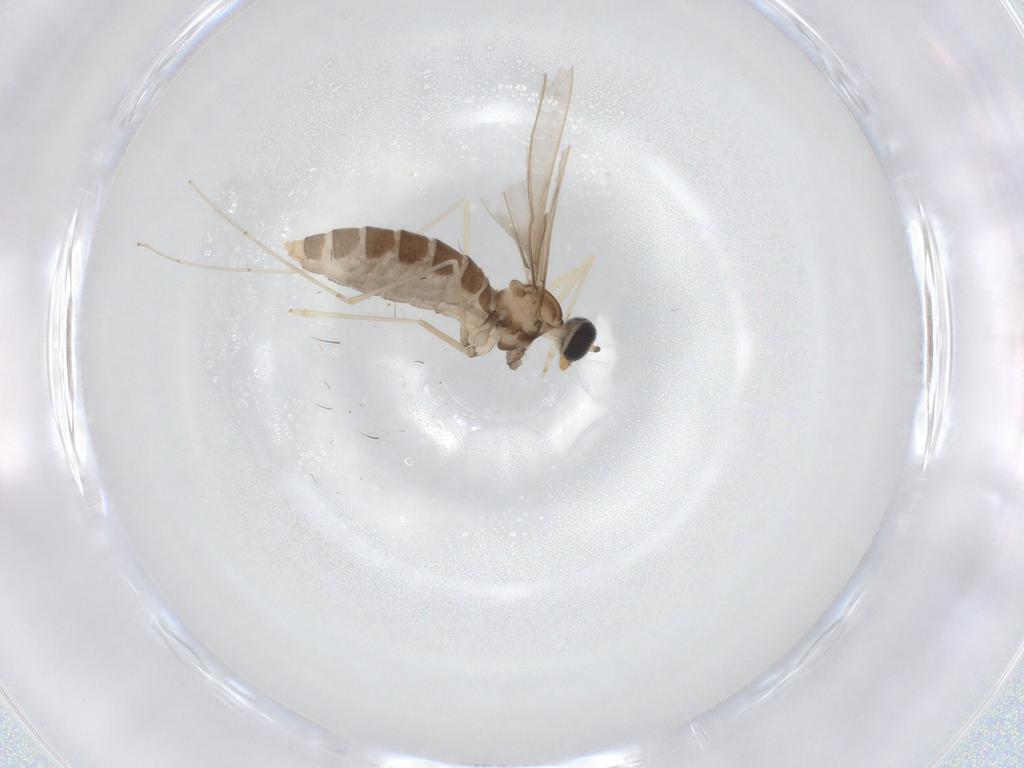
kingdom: Animalia
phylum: Arthropoda
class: Insecta
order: Diptera
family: Cecidomyiidae
